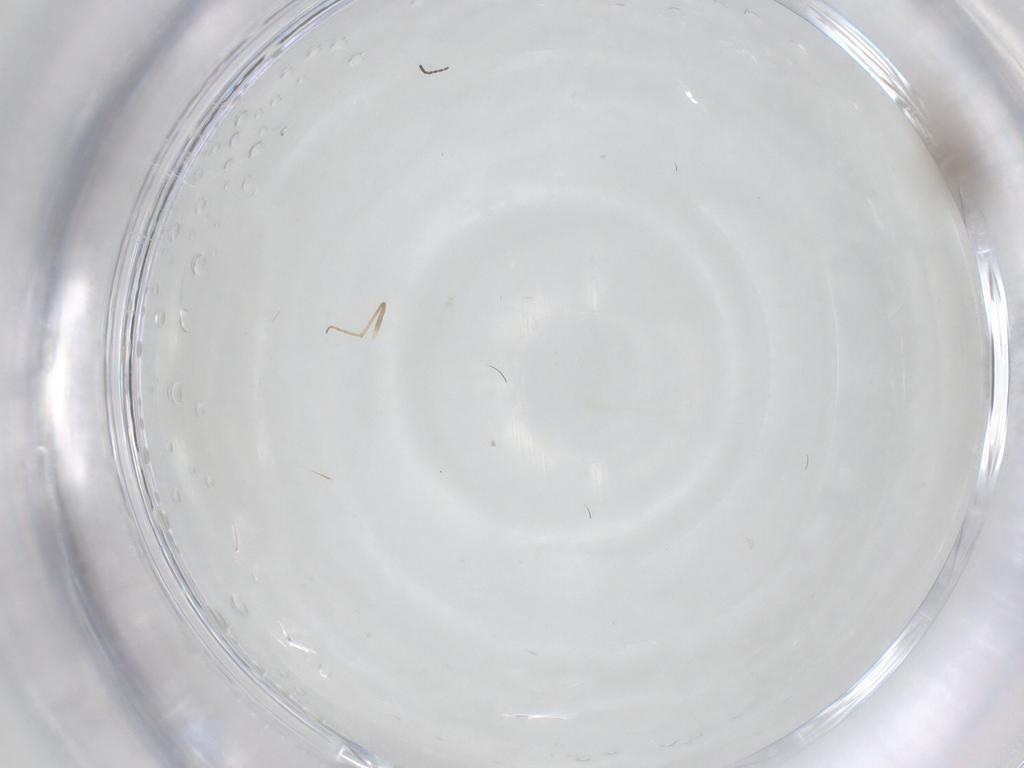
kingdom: Animalia
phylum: Arthropoda
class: Insecta
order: Diptera
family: Chironomidae
